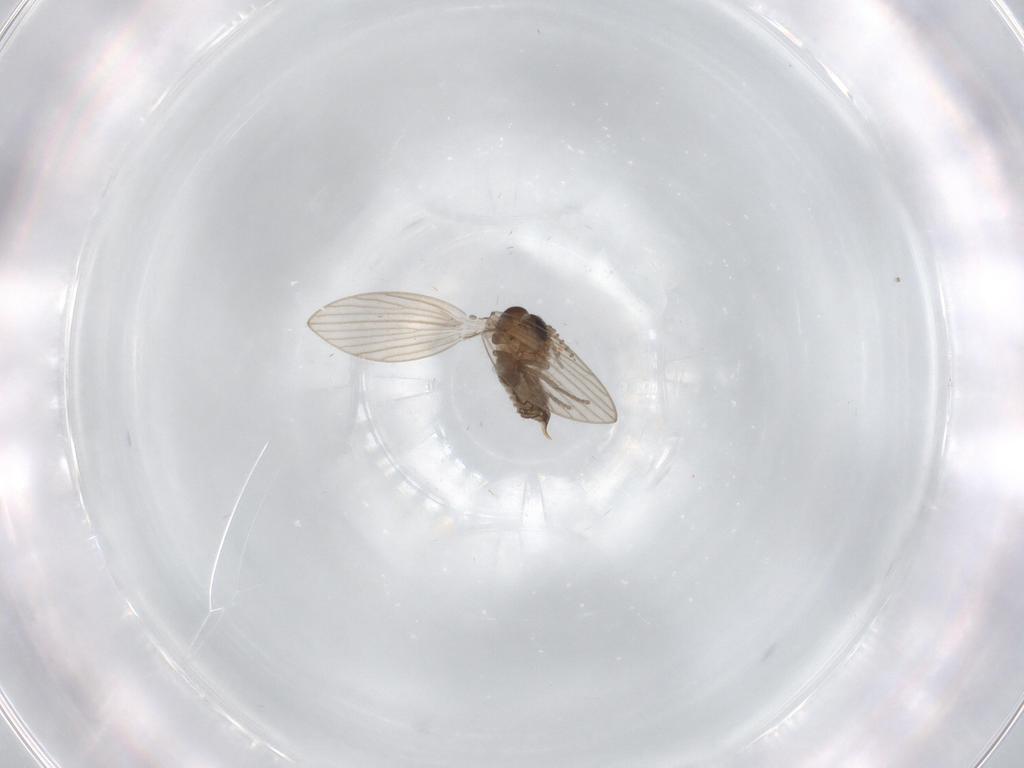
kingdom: Animalia
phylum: Arthropoda
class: Insecta
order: Diptera
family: Psychodidae
